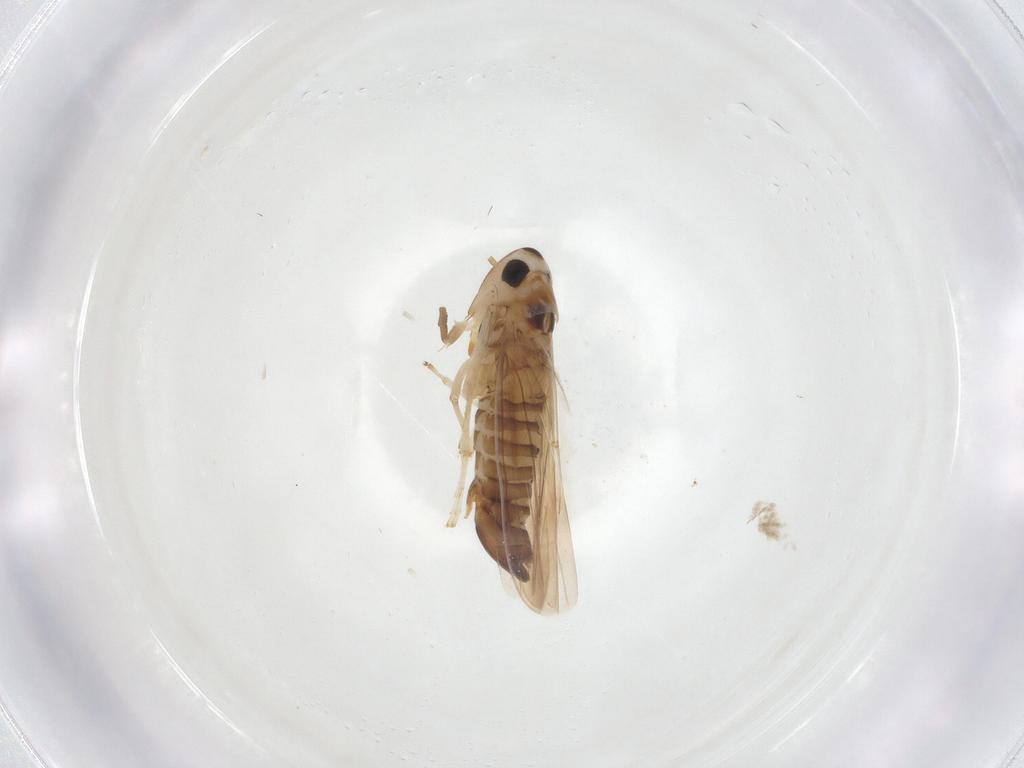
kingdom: Animalia
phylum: Arthropoda
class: Insecta
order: Hemiptera
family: Cicadellidae
